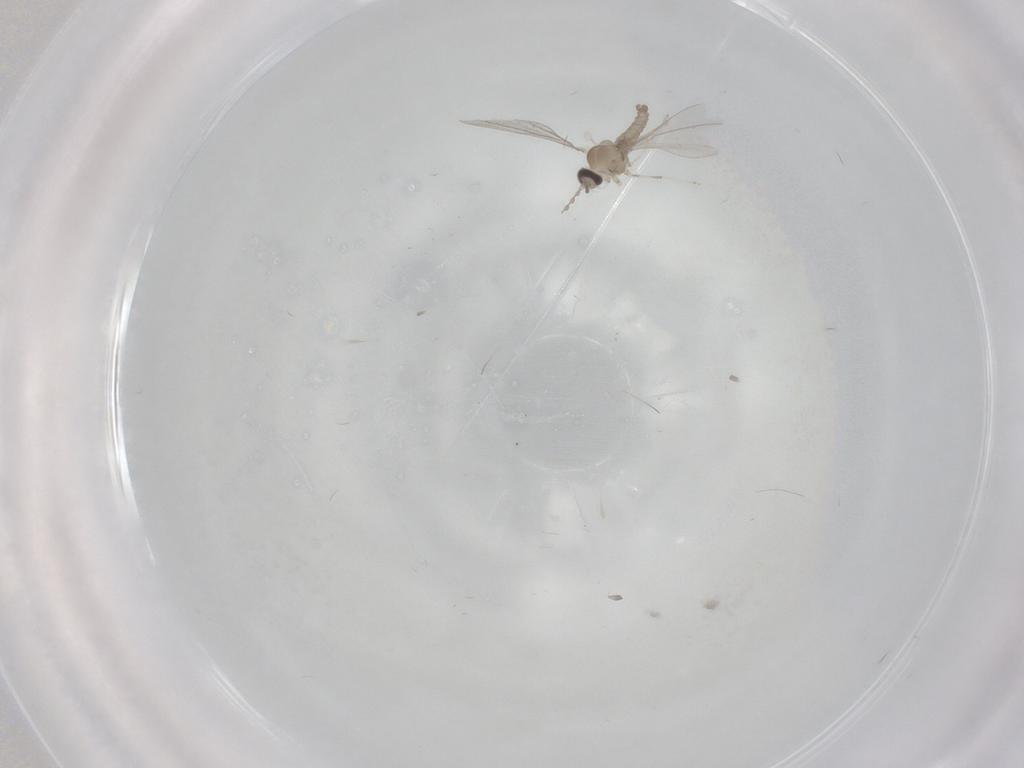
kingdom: Animalia
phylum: Arthropoda
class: Insecta
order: Diptera
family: Cecidomyiidae
